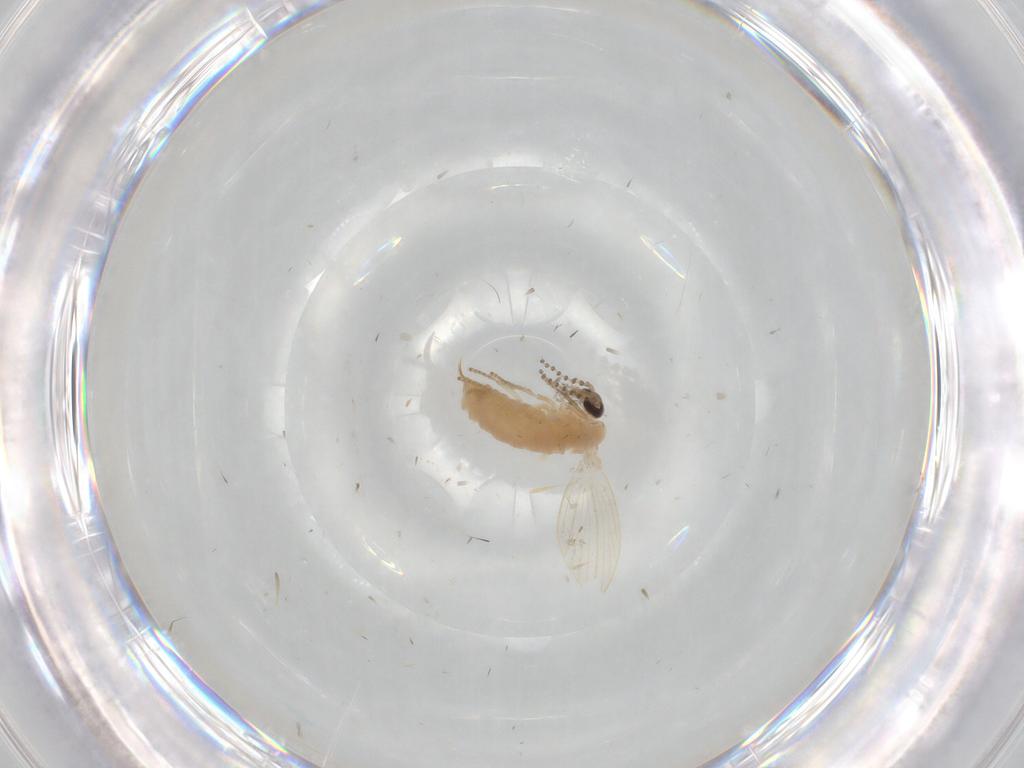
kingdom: Animalia
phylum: Arthropoda
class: Insecta
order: Diptera
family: Psychodidae
